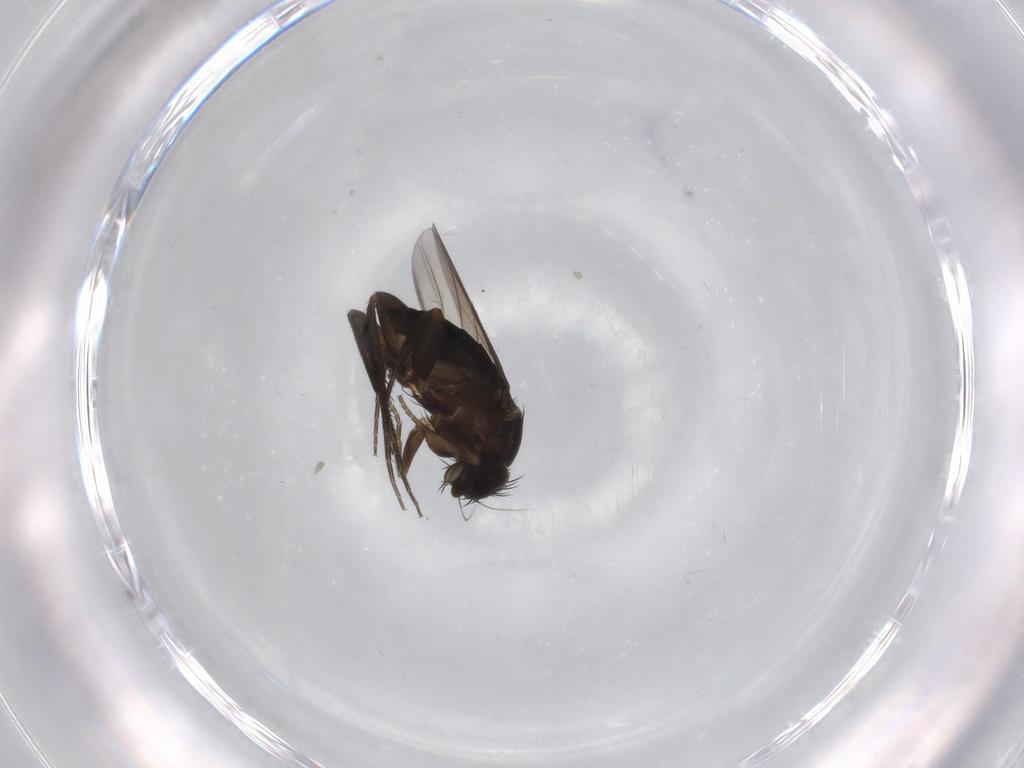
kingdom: Animalia
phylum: Arthropoda
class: Insecta
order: Diptera
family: Phoridae
